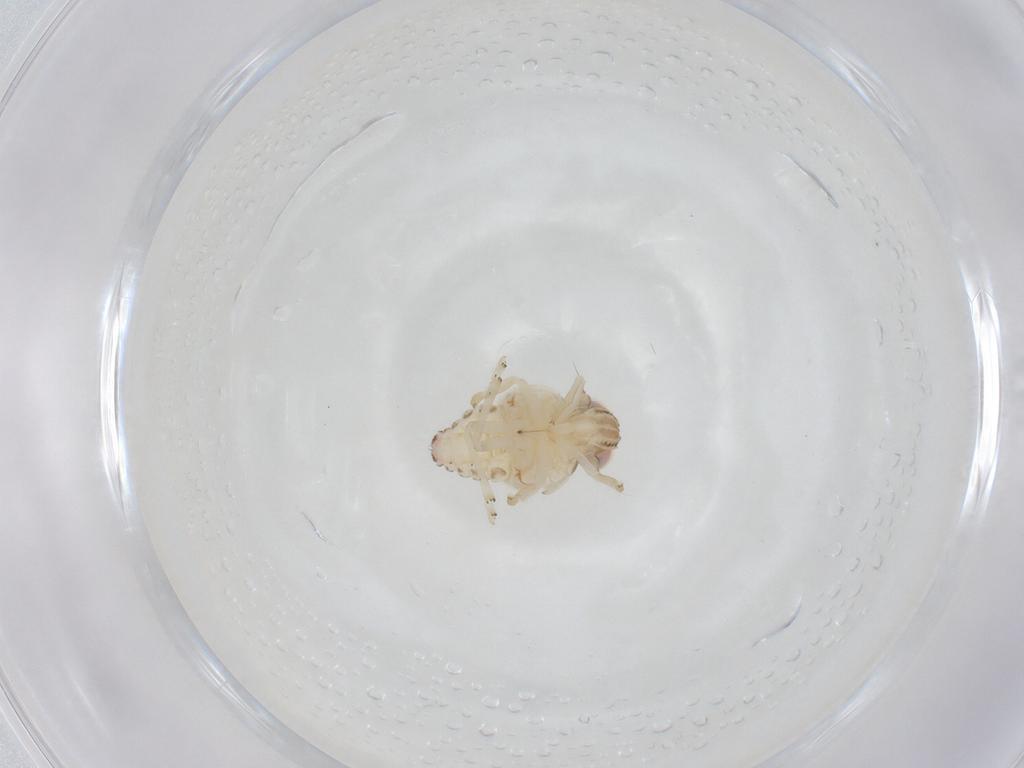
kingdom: Animalia
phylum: Arthropoda
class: Insecta
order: Hemiptera
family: Nogodinidae
